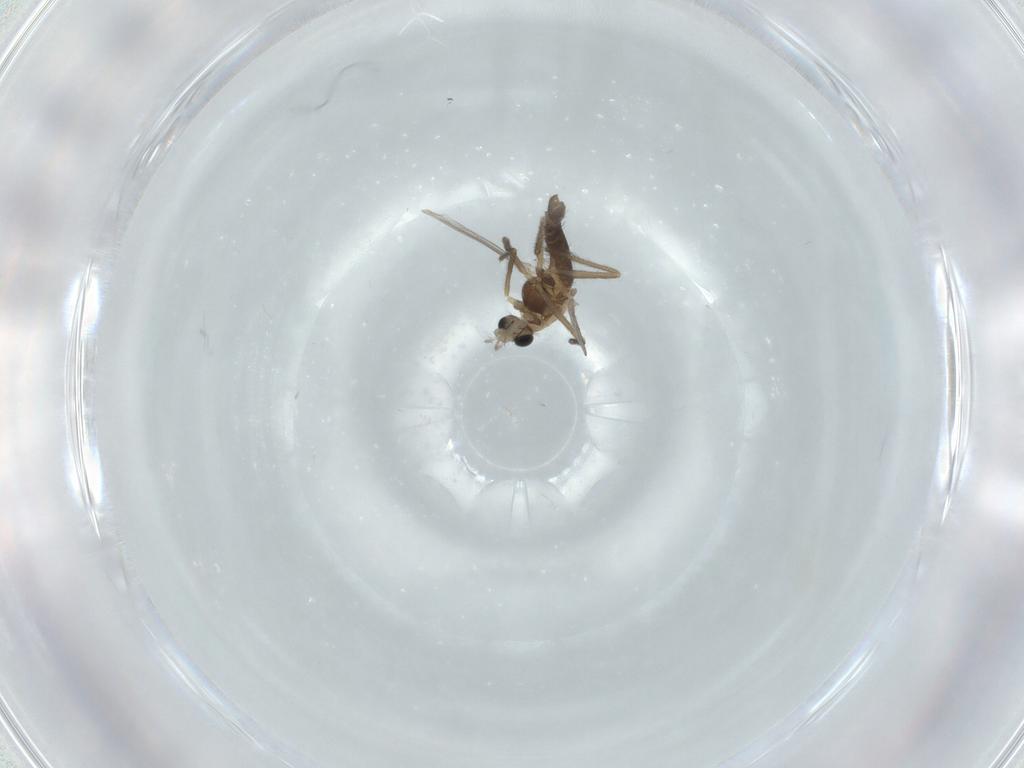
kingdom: Animalia
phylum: Arthropoda
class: Insecta
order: Diptera
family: Chironomidae
